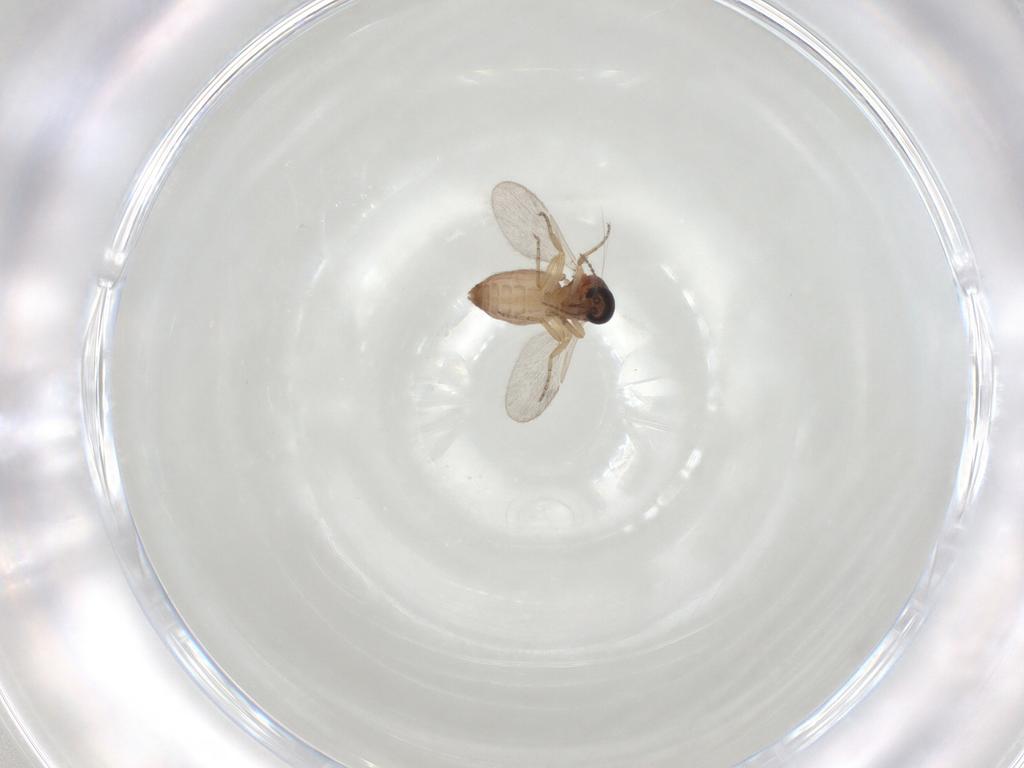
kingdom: Animalia
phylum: Arthropoda
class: Insecta
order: Diptera
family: Ceratopogonidae
